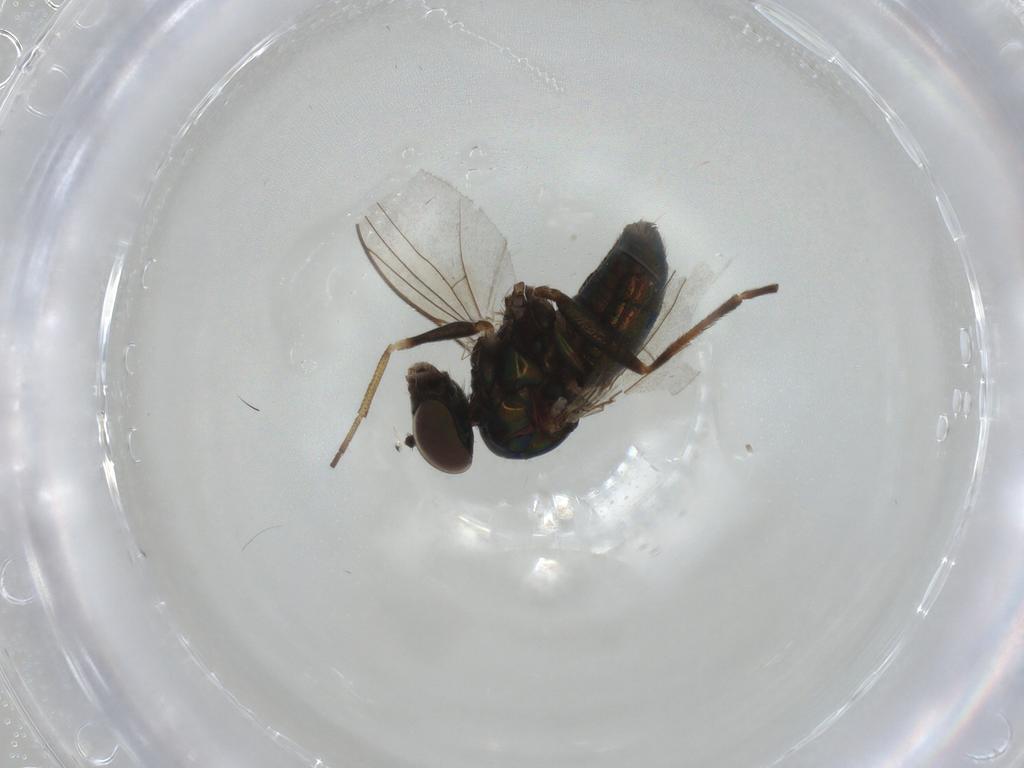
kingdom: Animalia
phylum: Arthropoda
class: Insecta
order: Diptera
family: Dolichopodidae
